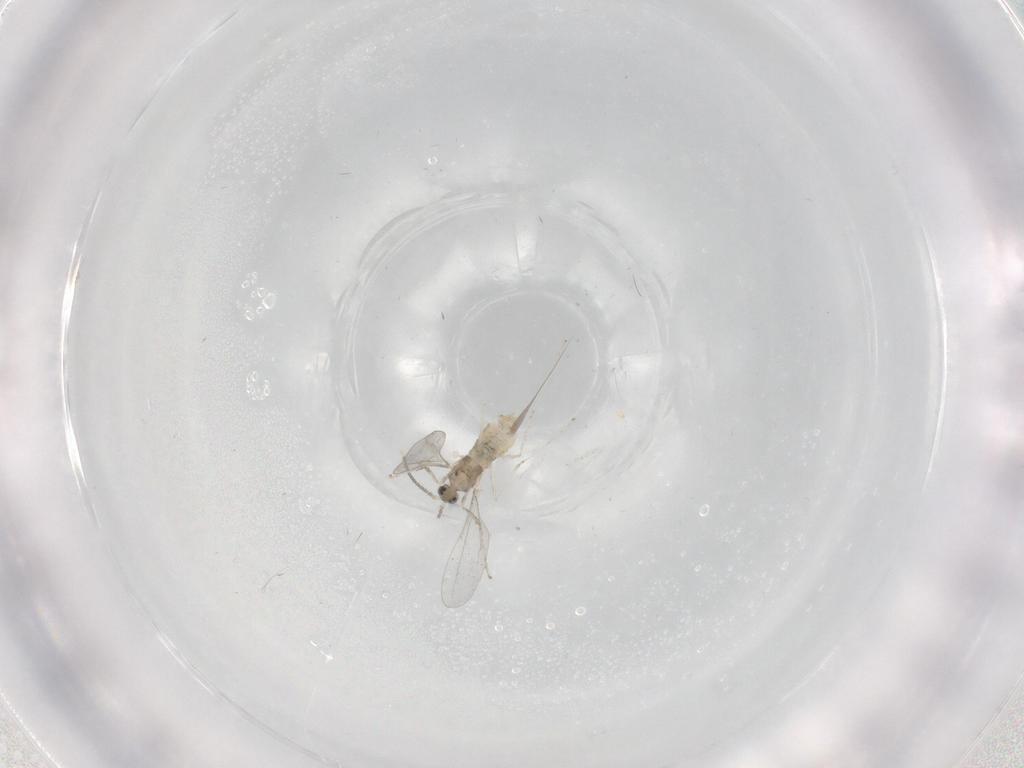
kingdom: Animalia
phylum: Arthropoda
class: Insecta
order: Diptera
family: Cecidomyiidae
